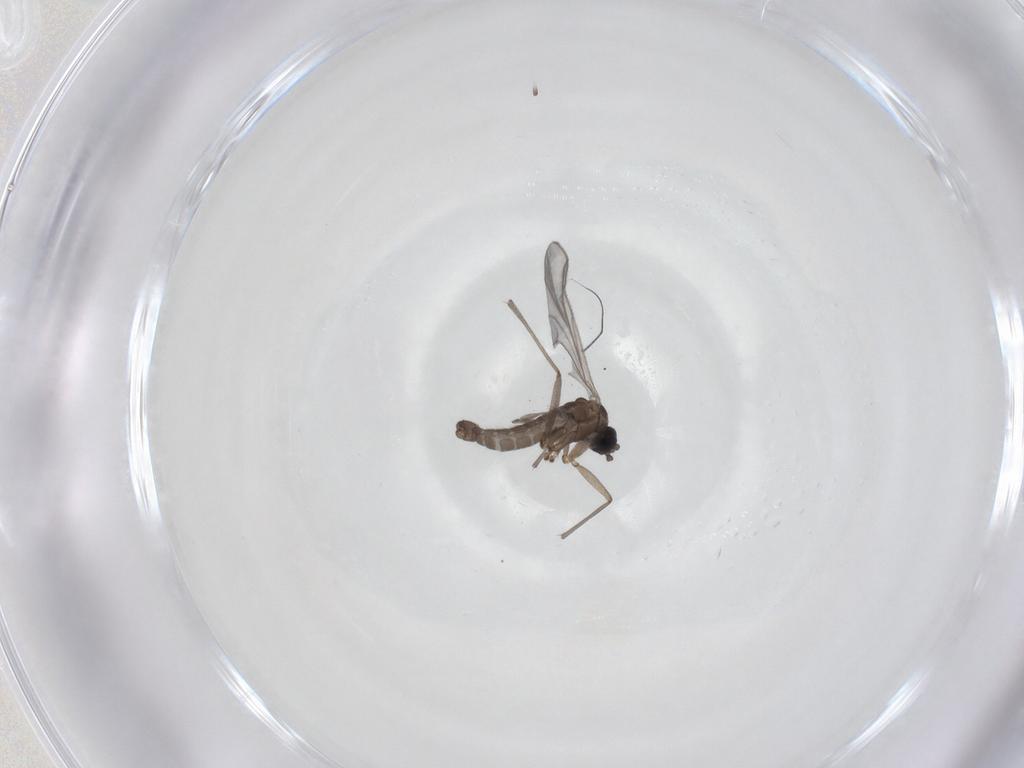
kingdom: Animalia
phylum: Arthropoda
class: Insecta
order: Diptera
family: Sciaridae
